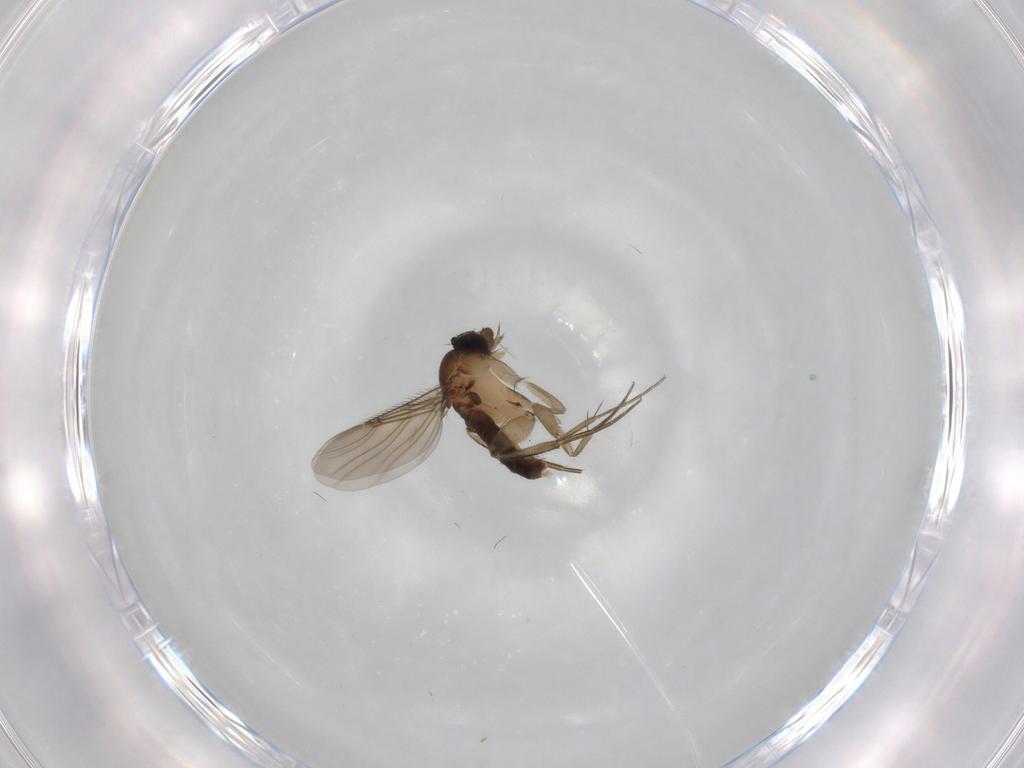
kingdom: Animalia
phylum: Arthropoda
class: Insecta
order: Diptera
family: Phoridae
